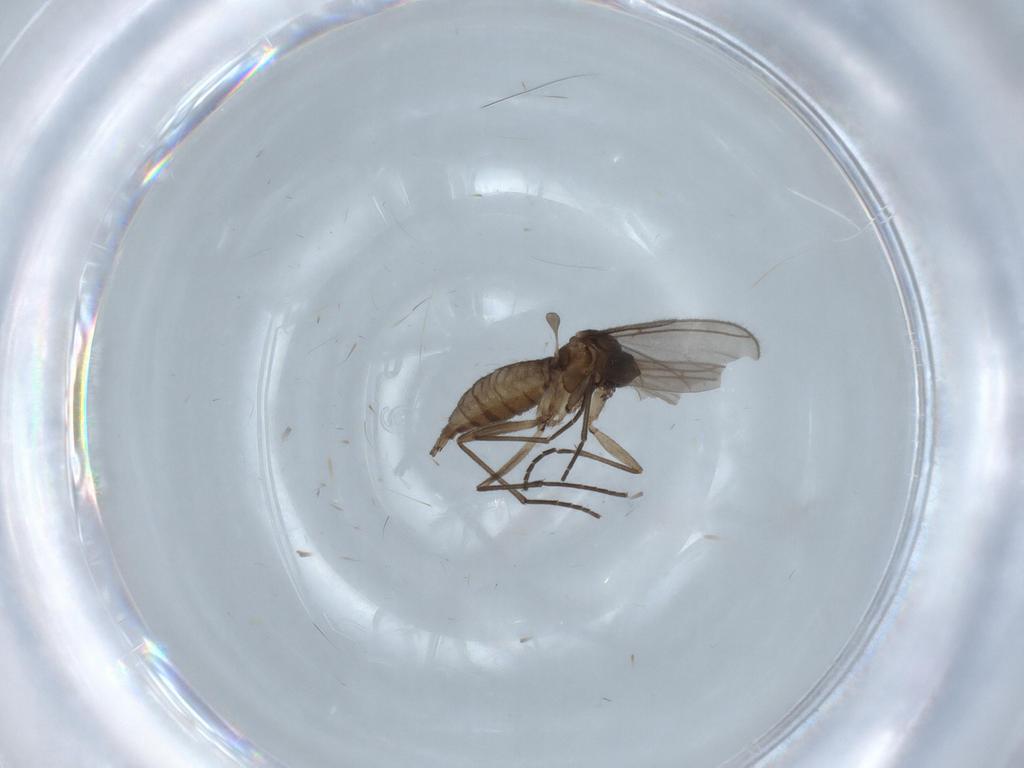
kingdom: Animalia
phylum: Arthropoda
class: Insecta
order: Diptera
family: Sciaridae
